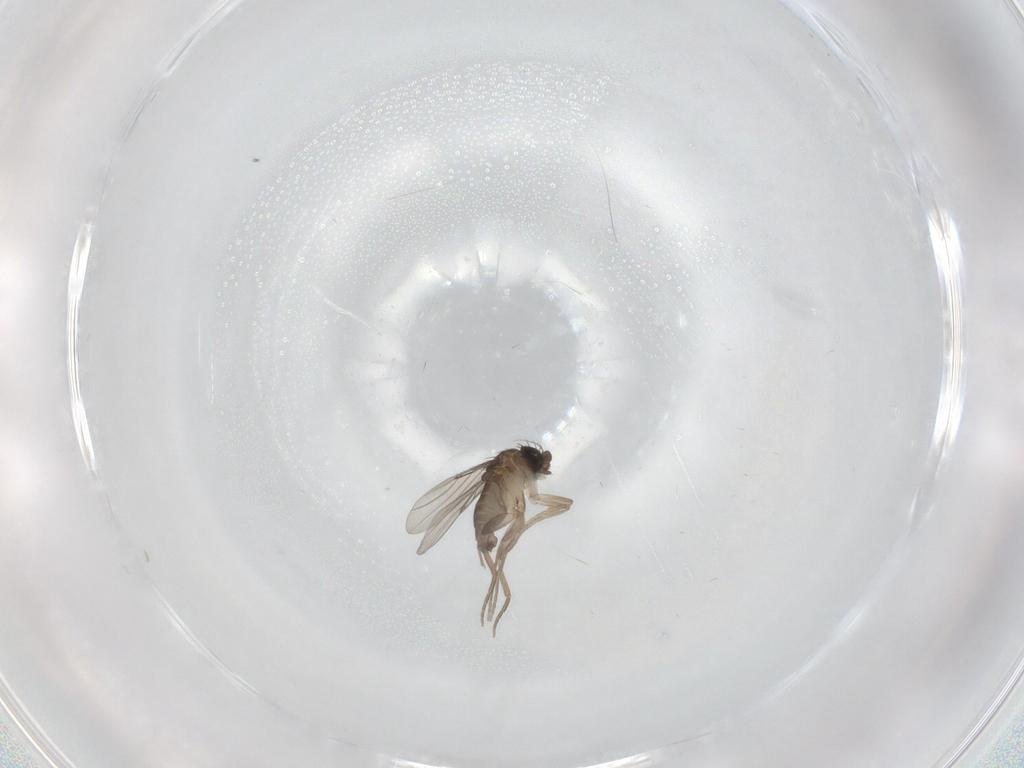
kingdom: Animalia
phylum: Arthropoda
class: Insecta
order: Diptera
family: Phoridae
